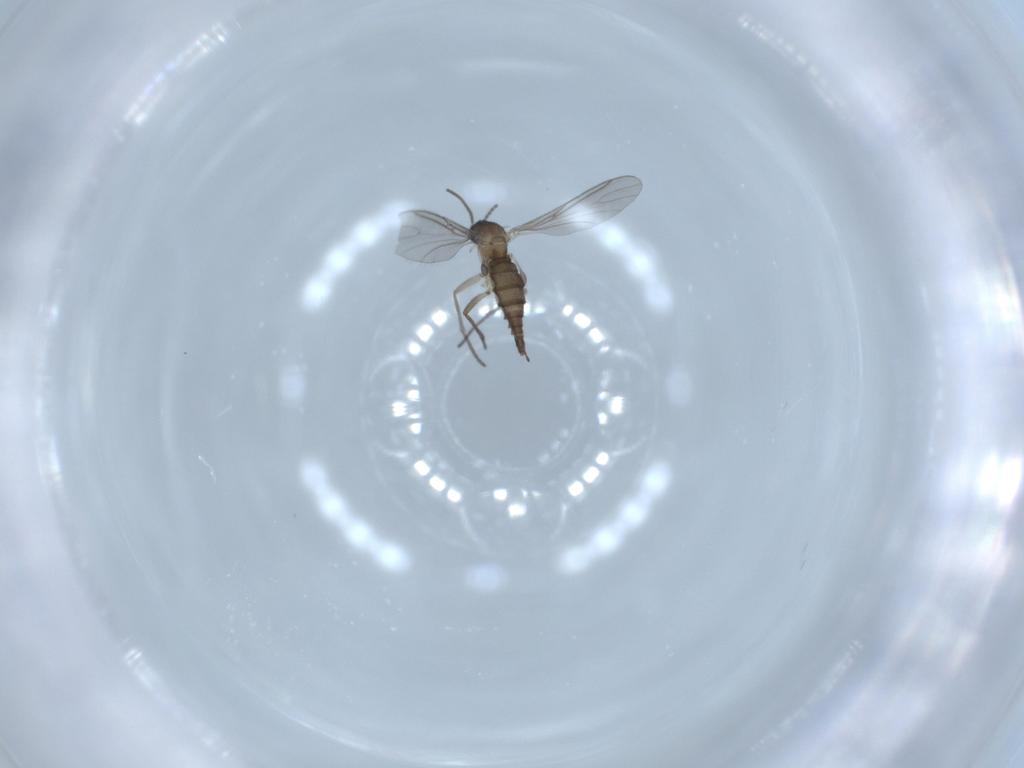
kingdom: Animalia
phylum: Arthropoda
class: Insecta
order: Diptera
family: Sciaridae
